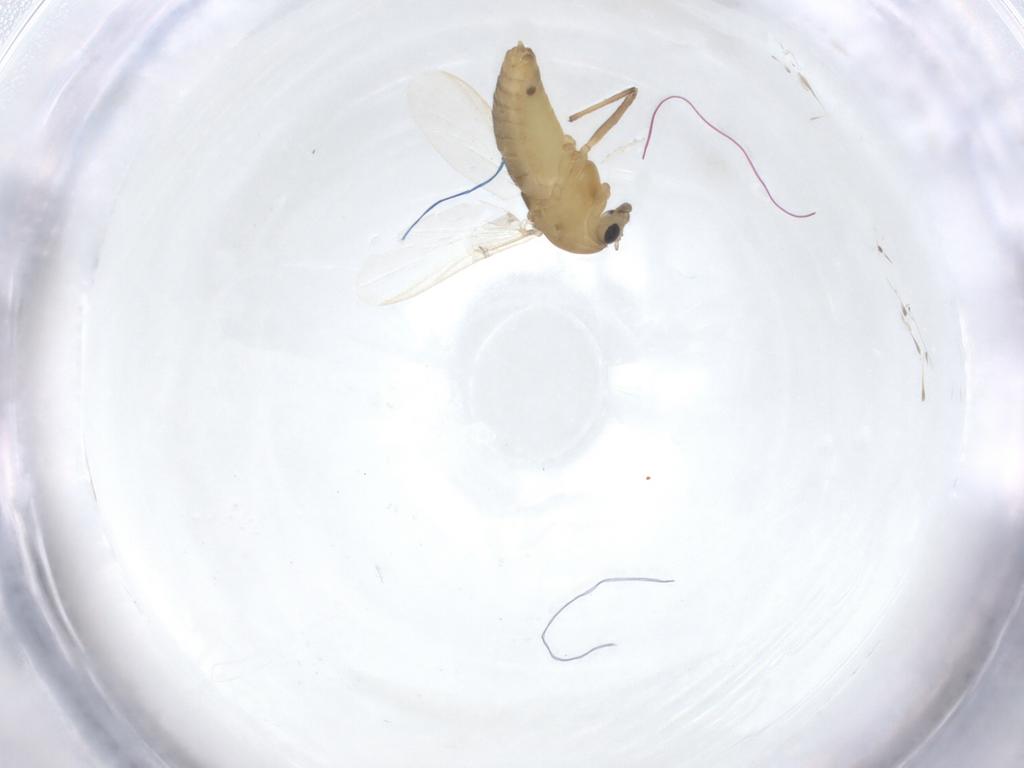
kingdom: Animalia
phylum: Arthropoda
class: Insecta
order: Diptera
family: Chironomidae
